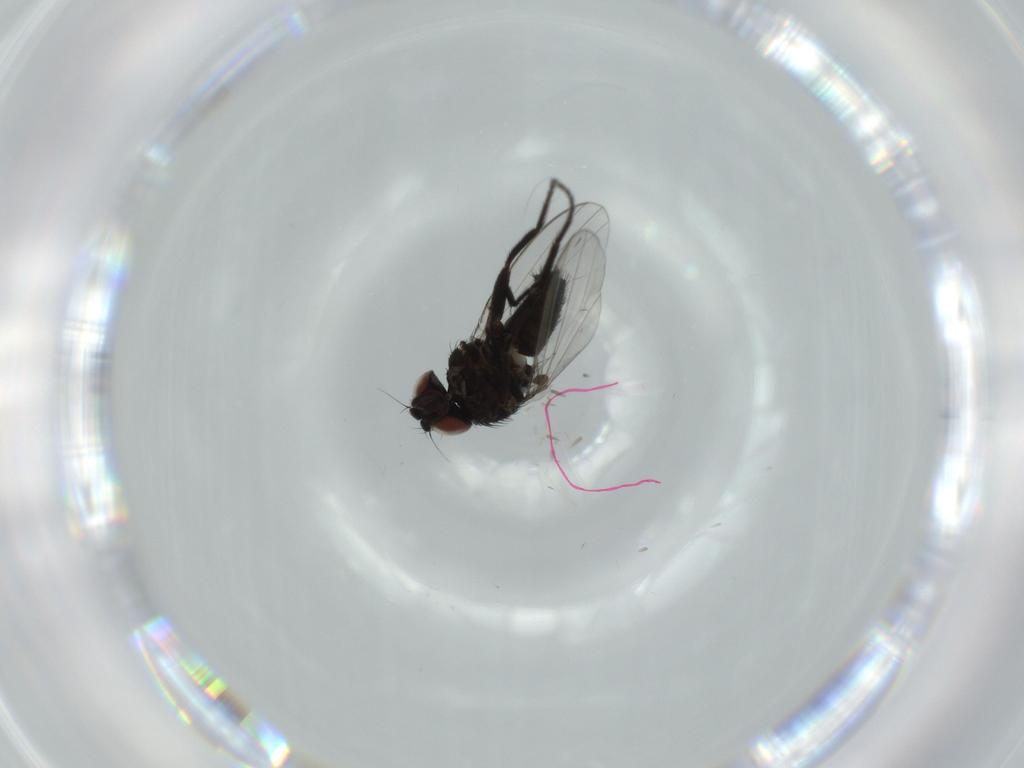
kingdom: Animalia
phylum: Arthropoda
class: Insecta
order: Diptera
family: Milichiidae
